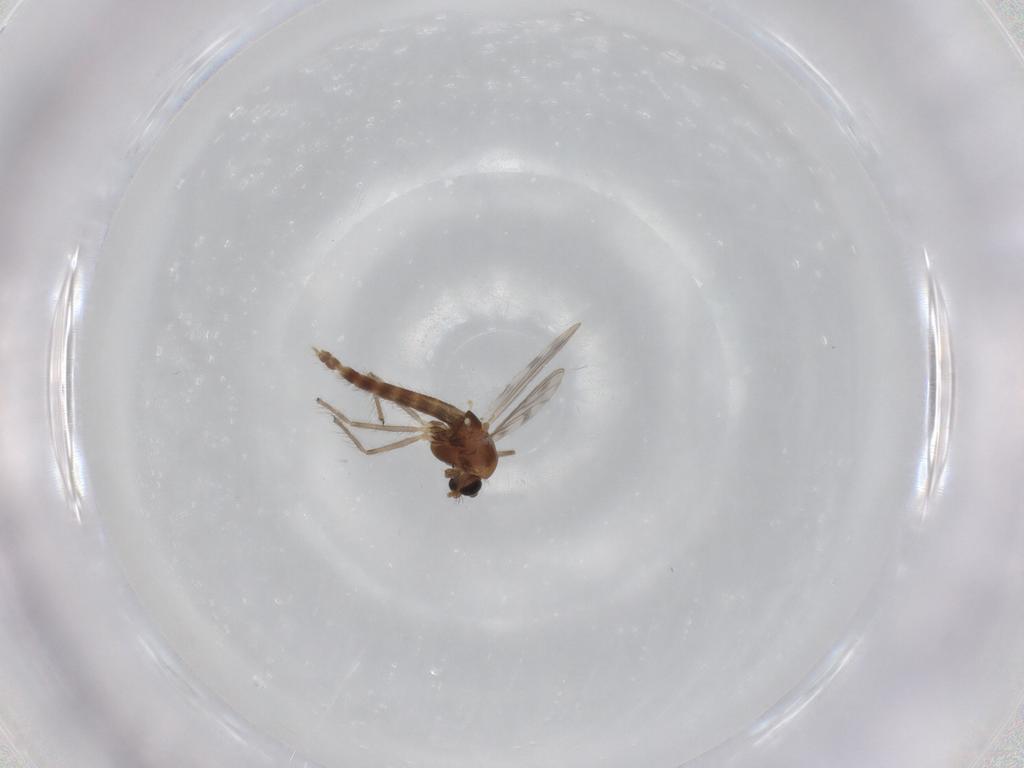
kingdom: Animalia
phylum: Arthropoda
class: Insecta
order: Diptera
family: Chironomidae
